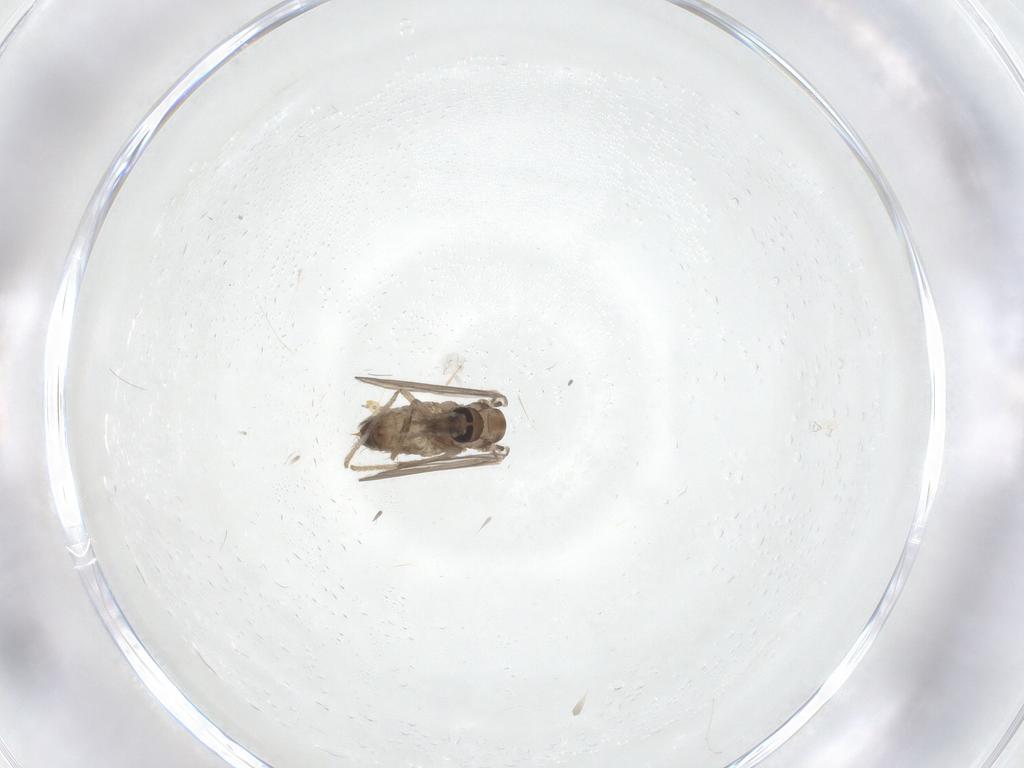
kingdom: Animalia
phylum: Arthropoda
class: Insecta
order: Diptera
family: Psychodidae
